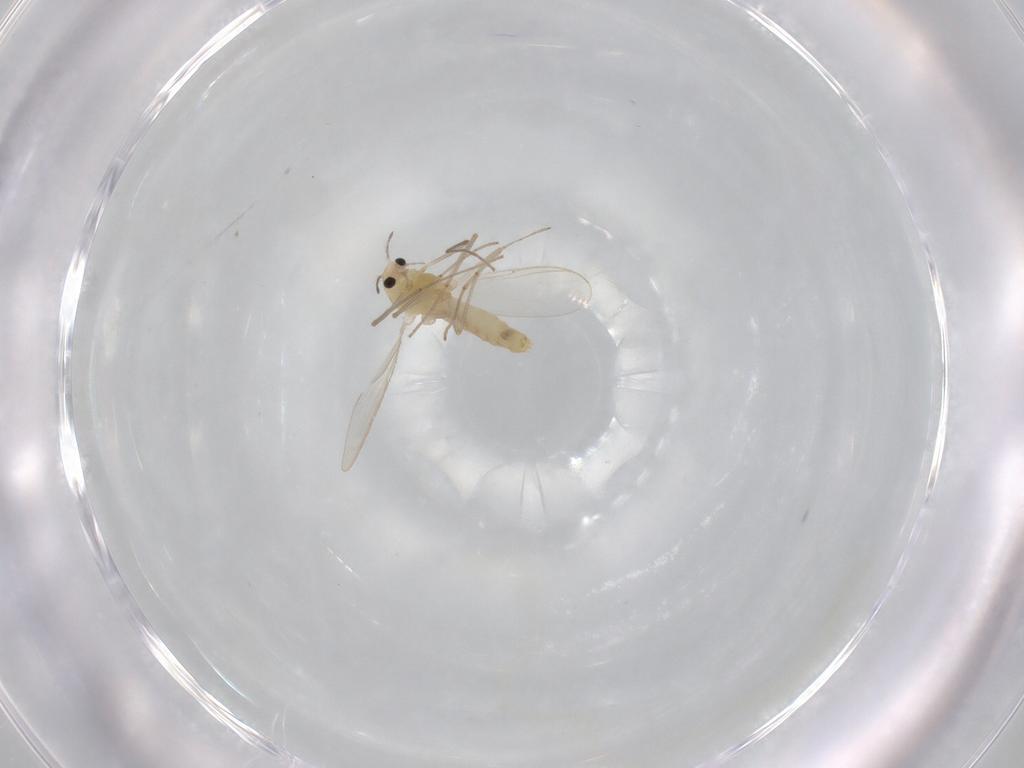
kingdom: Animalia
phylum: Arthropoda
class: Insecta
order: Diptera
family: Chironomidae
